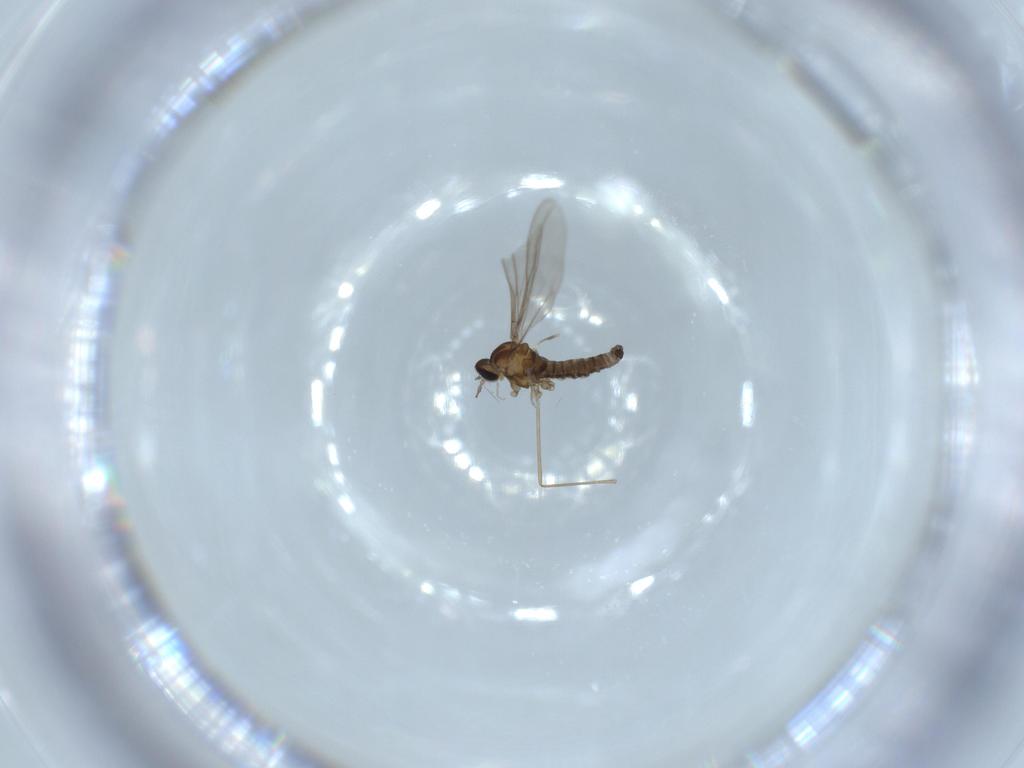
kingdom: Animalia
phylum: Arthropoda
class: Insecta
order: Diptera
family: Cecidomyiidae
